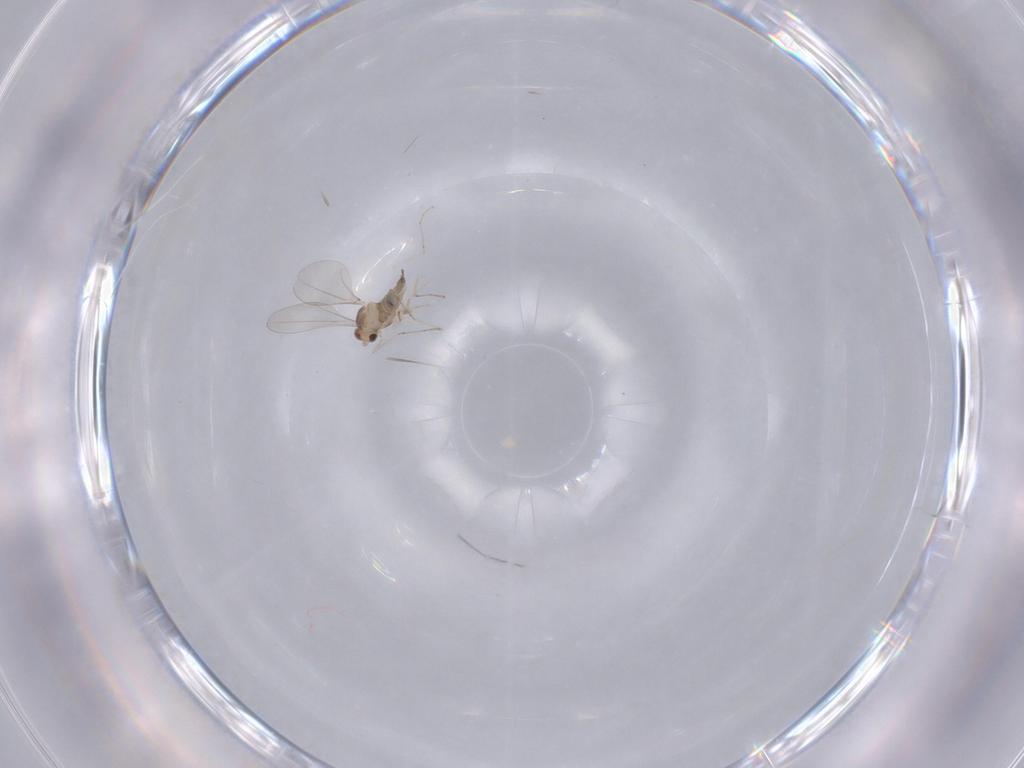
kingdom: Animalia
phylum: Arthropoda
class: Insecta
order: Diptera
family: Cecidomyiidae
